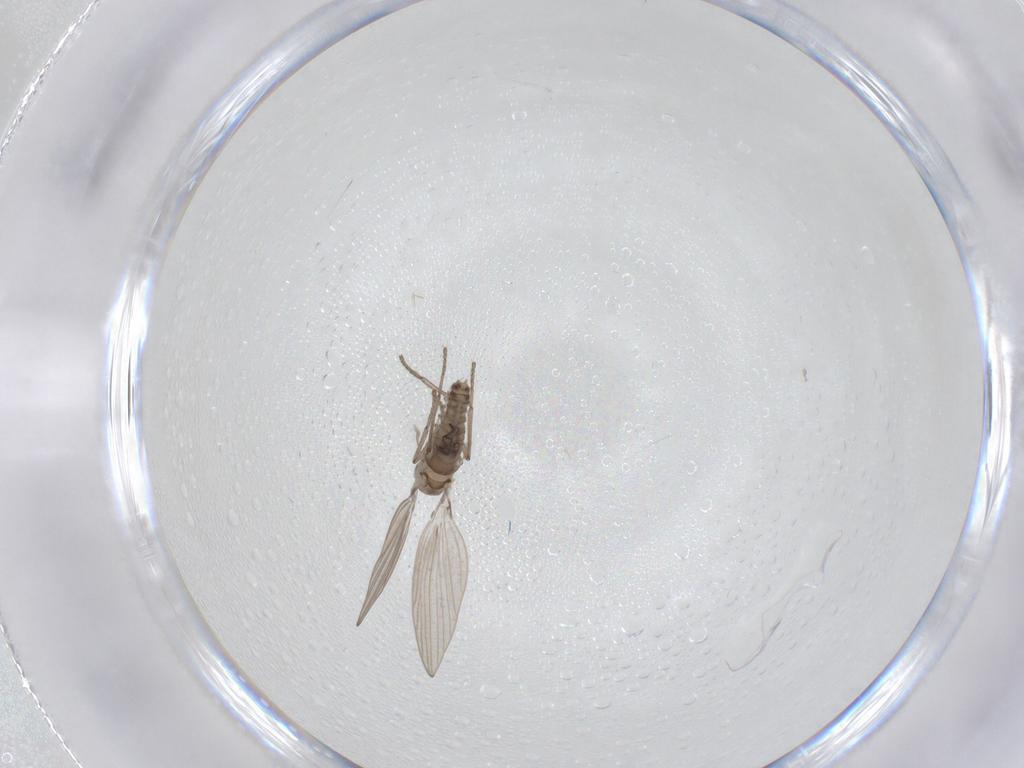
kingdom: Animalia
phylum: Arthropoda
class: Insecta
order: Diptera
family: Psychodidae
